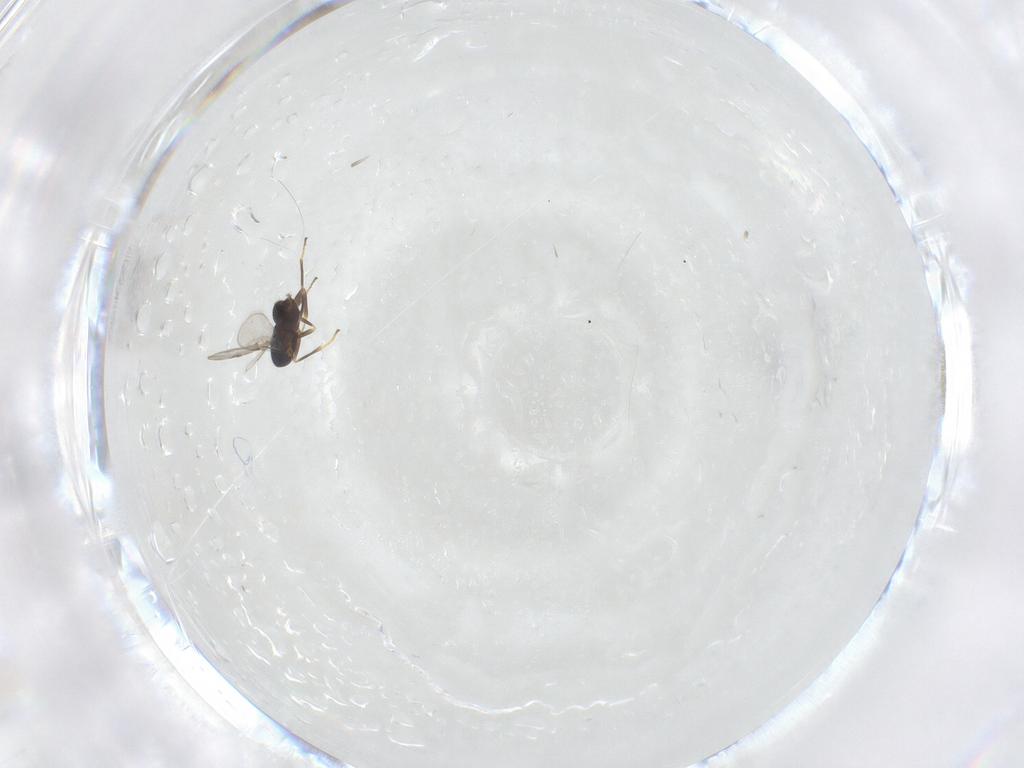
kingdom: Animalia
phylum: Arthropoda
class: Insecta
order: Hymenoptera
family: Encyrtidae
